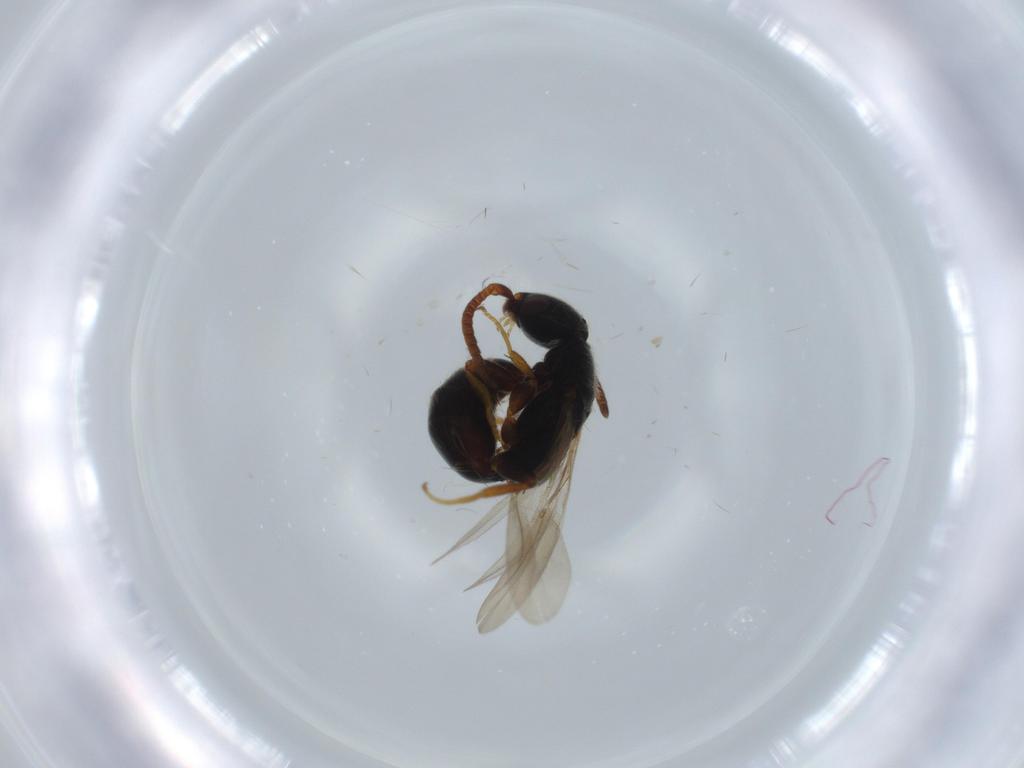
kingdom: Animalia
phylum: Arthropoda
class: Insecta
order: Hymenoptera
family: Bethylidae
